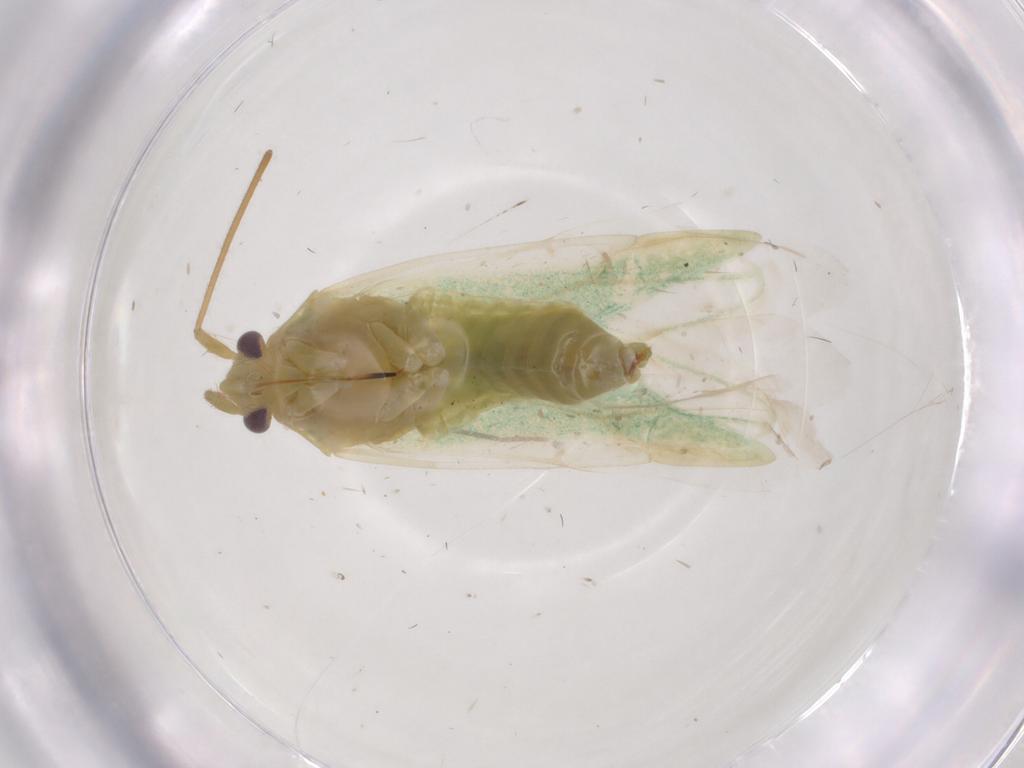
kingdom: Animalia
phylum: Arthropoda
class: Insecta
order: Hemiptera
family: Miridae
